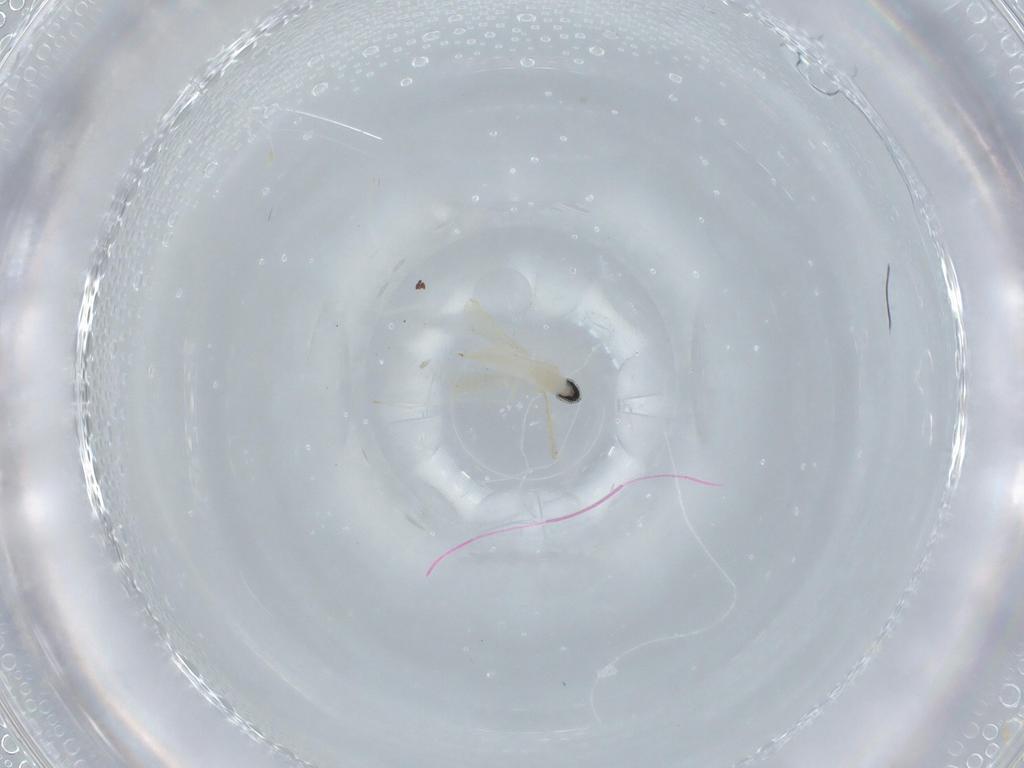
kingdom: Animalia
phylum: Arthropoda
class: Insecta
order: Diptera
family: Cecidomyiidae
